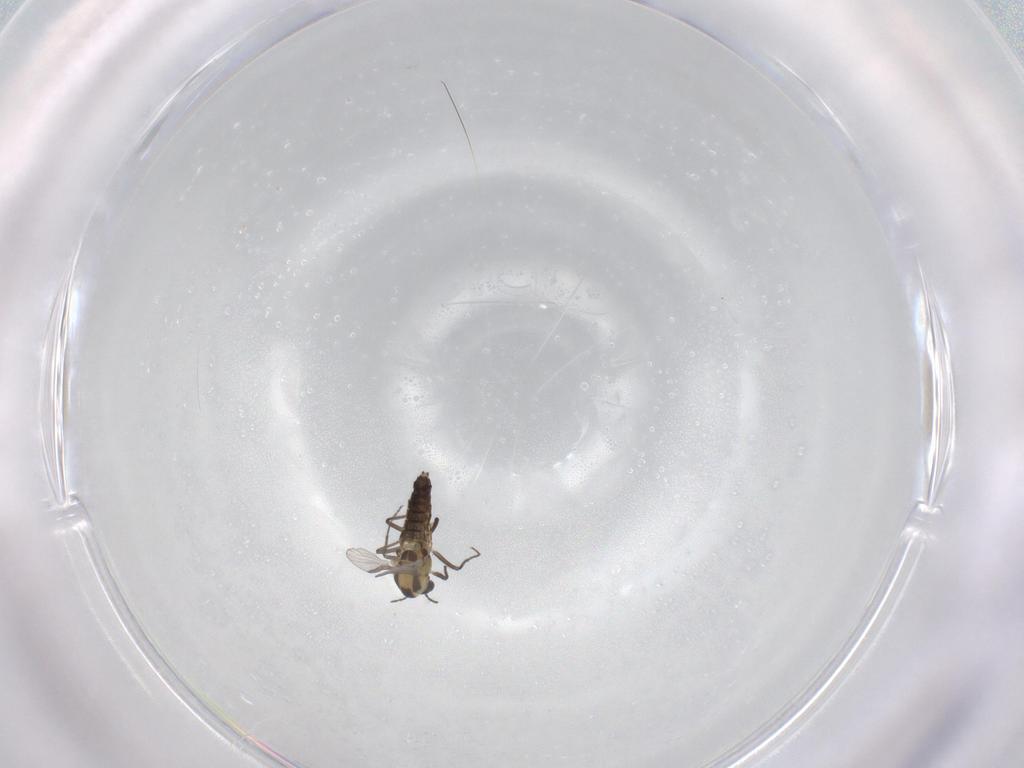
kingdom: Animalia
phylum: Arthropoda
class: Insecta
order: Diptera
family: Chironomidae
